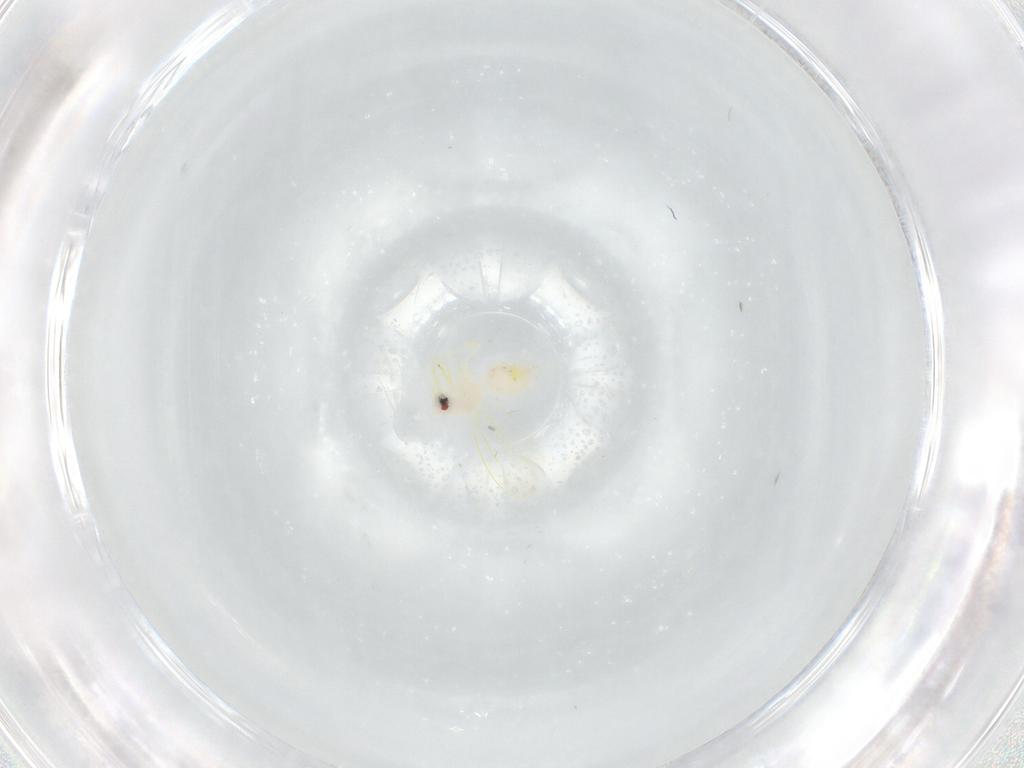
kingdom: Animalia
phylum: Arthropoda
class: Insecta
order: Hemiptera
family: Aleyrodidae
